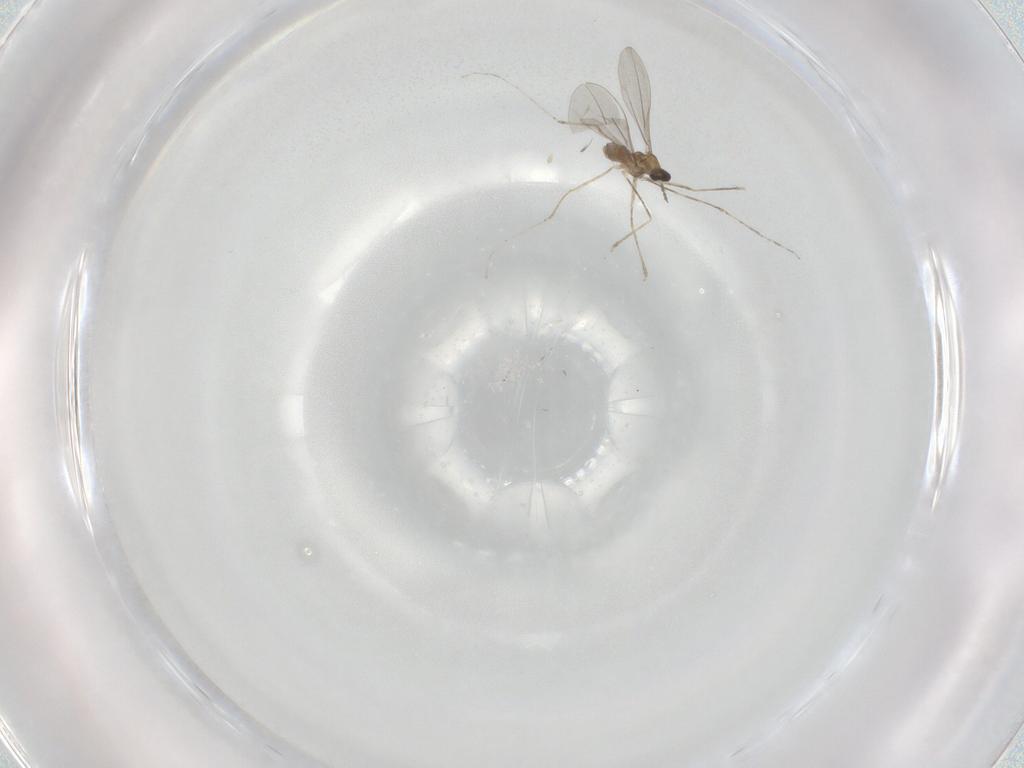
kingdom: Animalia
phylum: Arthropoda
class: Insecta
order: Diptera
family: Cecidomyiidae
